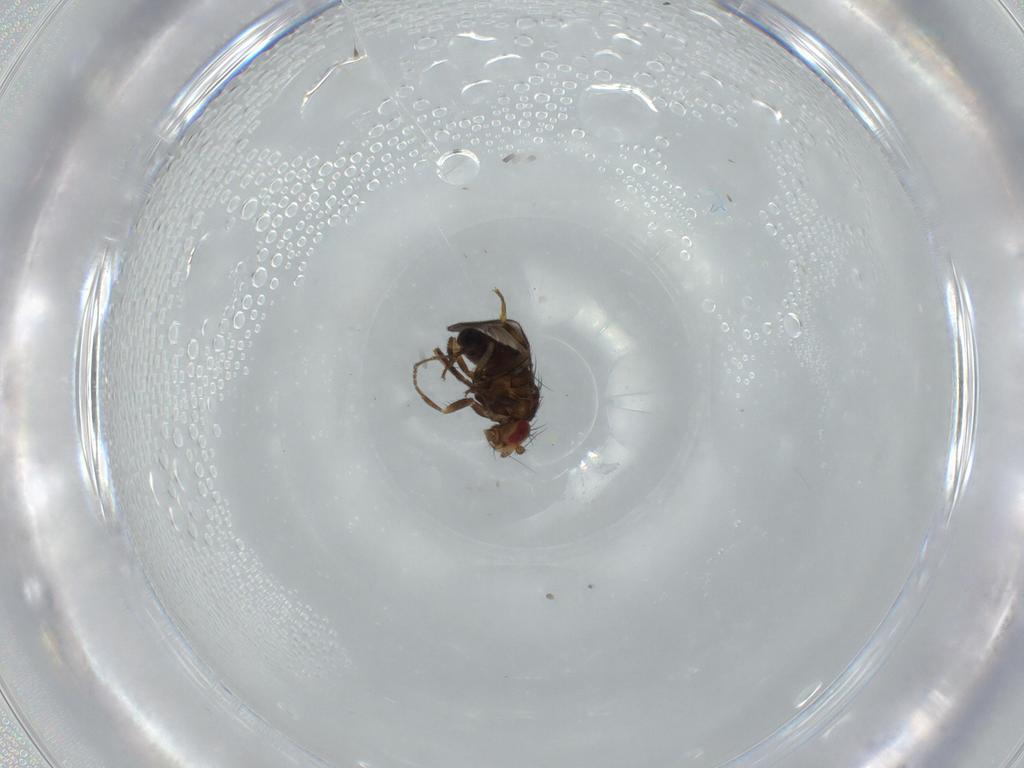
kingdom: Animalia
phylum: Arthropoda
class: Insecta
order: Diptera
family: Sphaeroceridae
